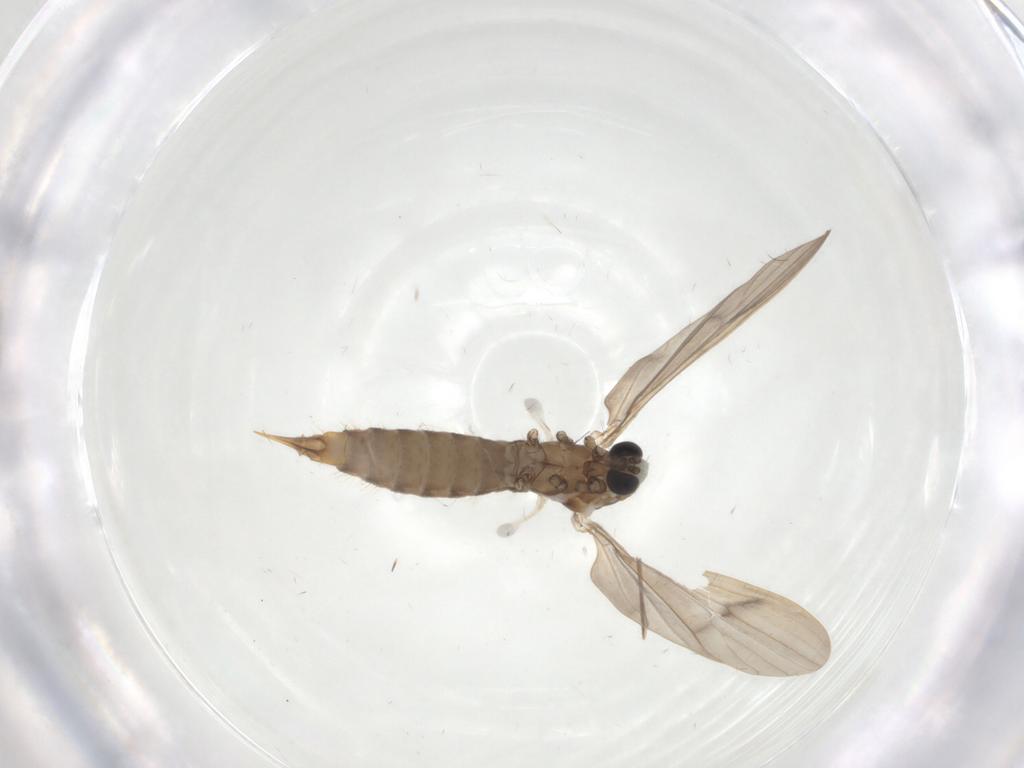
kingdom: Animalia
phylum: Arthropoda
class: Insecta
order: Diptera
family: Limoniidae
